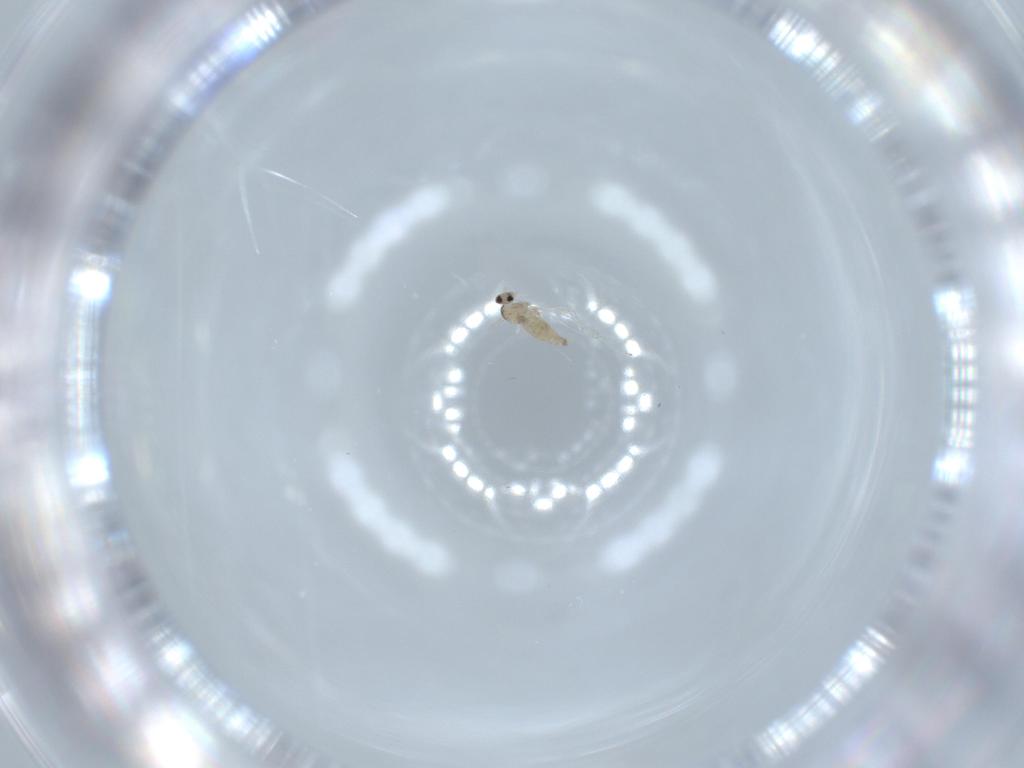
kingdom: Animalia
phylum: Arthropoda
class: Insecta
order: Diptera
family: Cecidomyiidae
